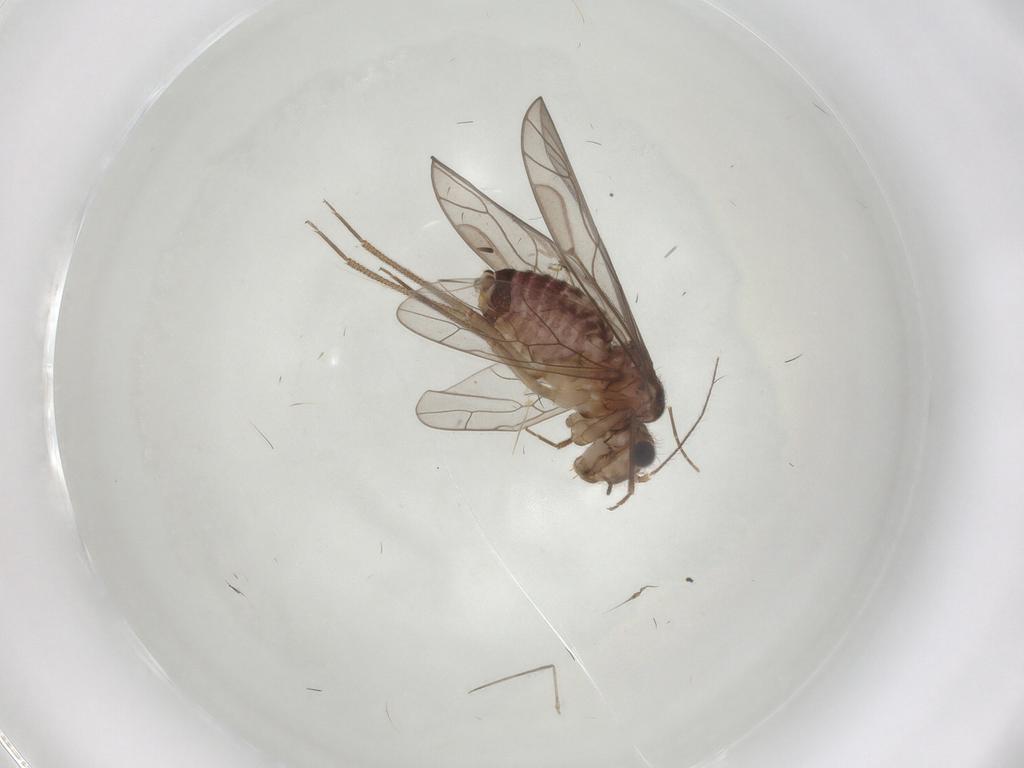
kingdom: Animalia
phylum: Arthropoda
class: Insecta
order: Psocodea
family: Lachesillidae
